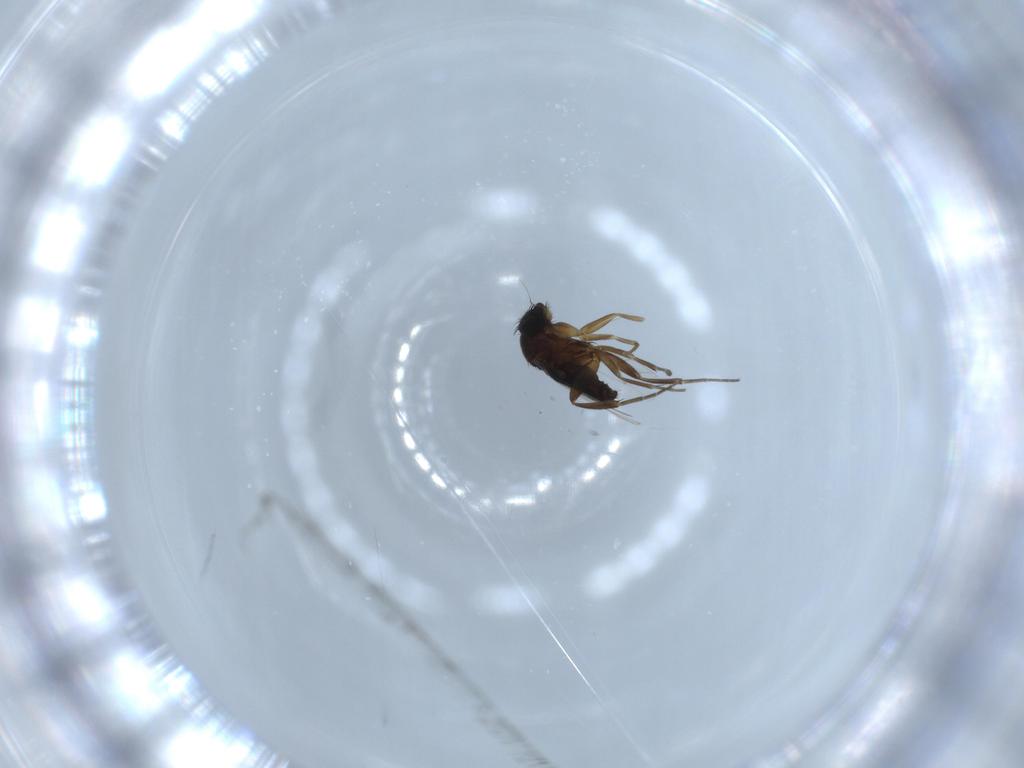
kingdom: Animalia
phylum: Arthropoda
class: Insecta
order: Diptera
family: Phoridae
